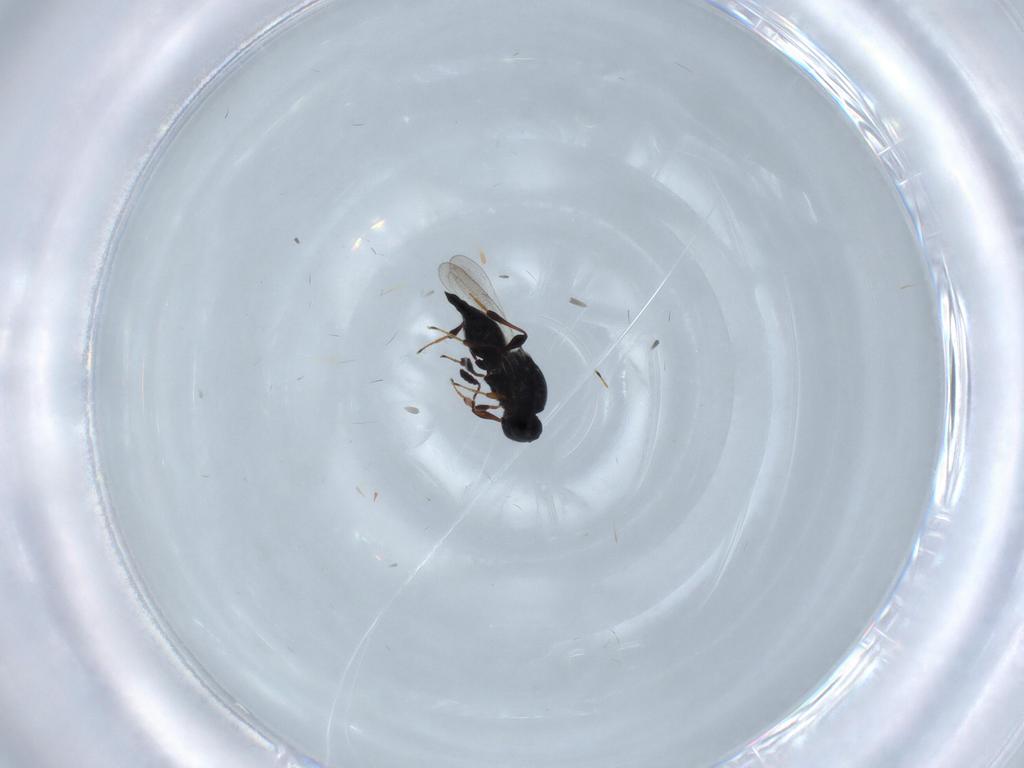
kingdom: Animalia
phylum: Arthropoda
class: Insecta
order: Hymenoptera
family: Platygastridae
